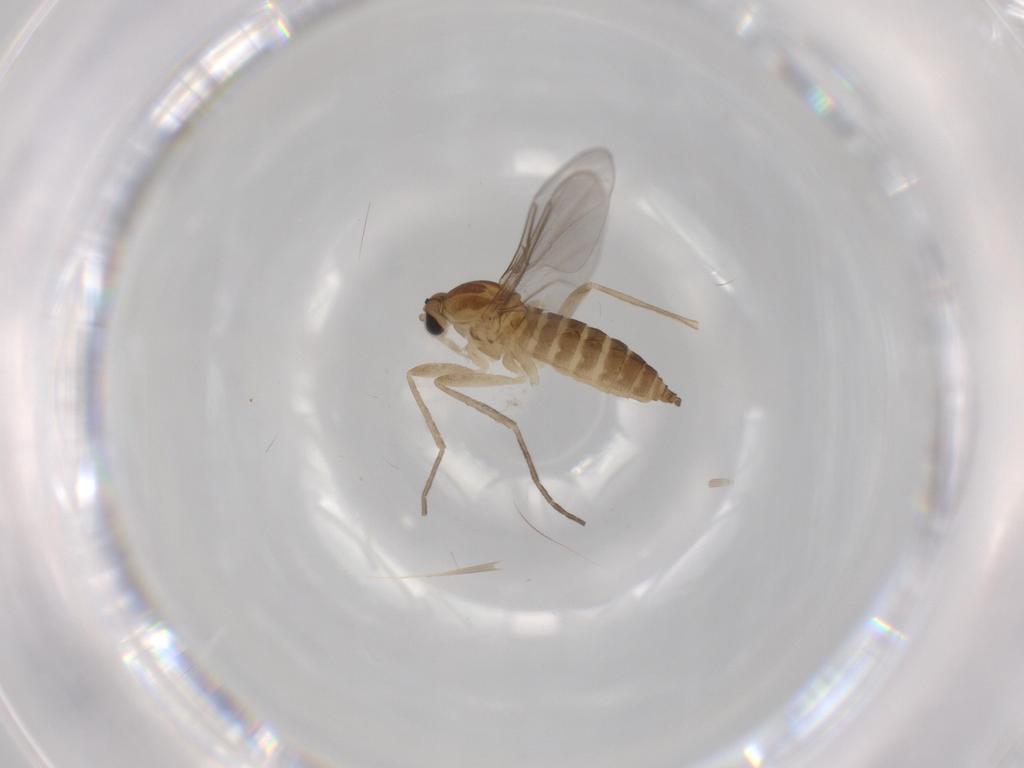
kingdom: Animalia
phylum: Arthropoda
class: Insecta
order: Diptera
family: Cecidomyiidae
